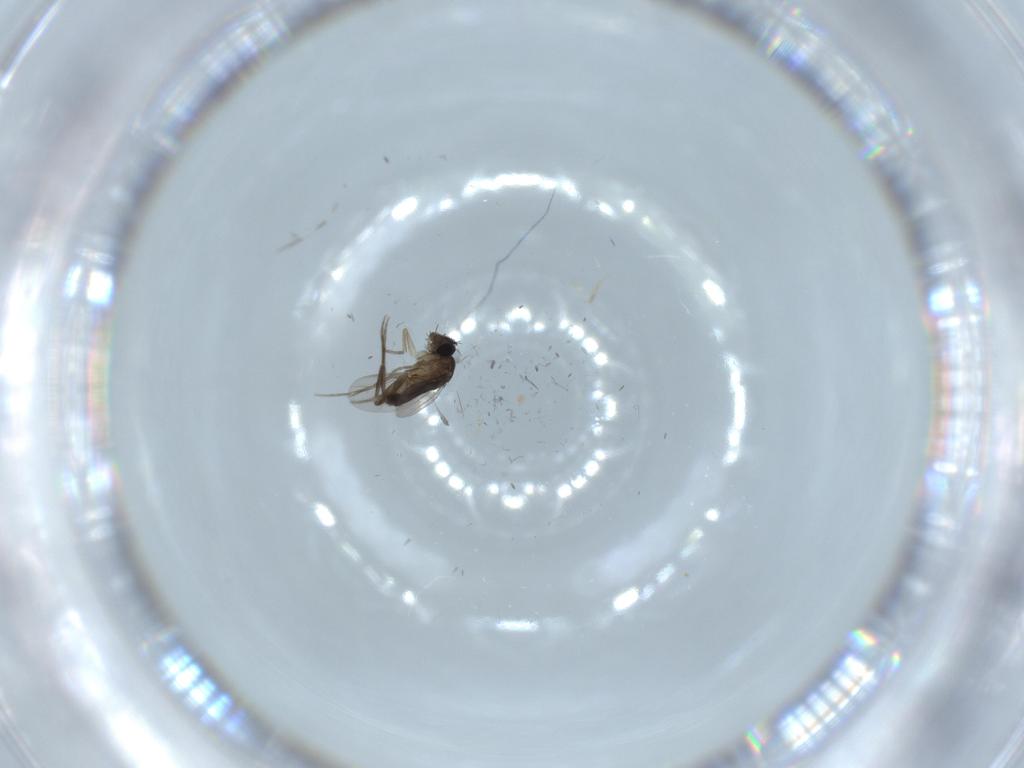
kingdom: Animalia
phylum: Arthropoda
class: Insecta
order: Diptera
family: Phoridae
